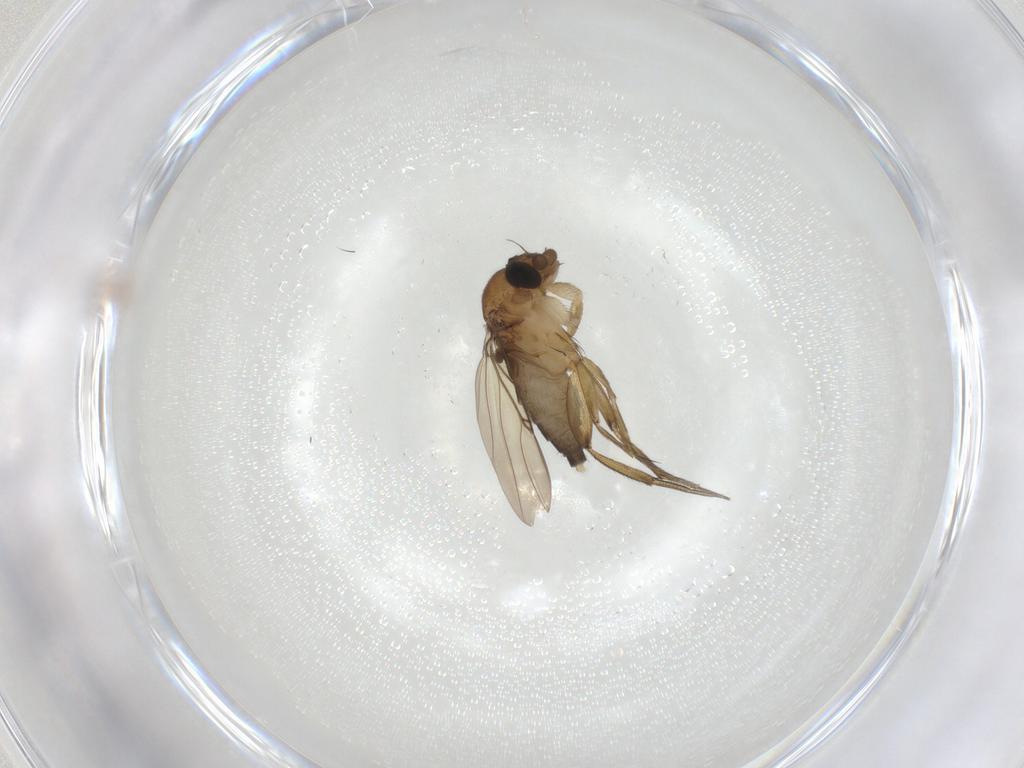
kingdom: Animalia
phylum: Arthropoda
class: Insecta
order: Diptera
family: Phoridae
